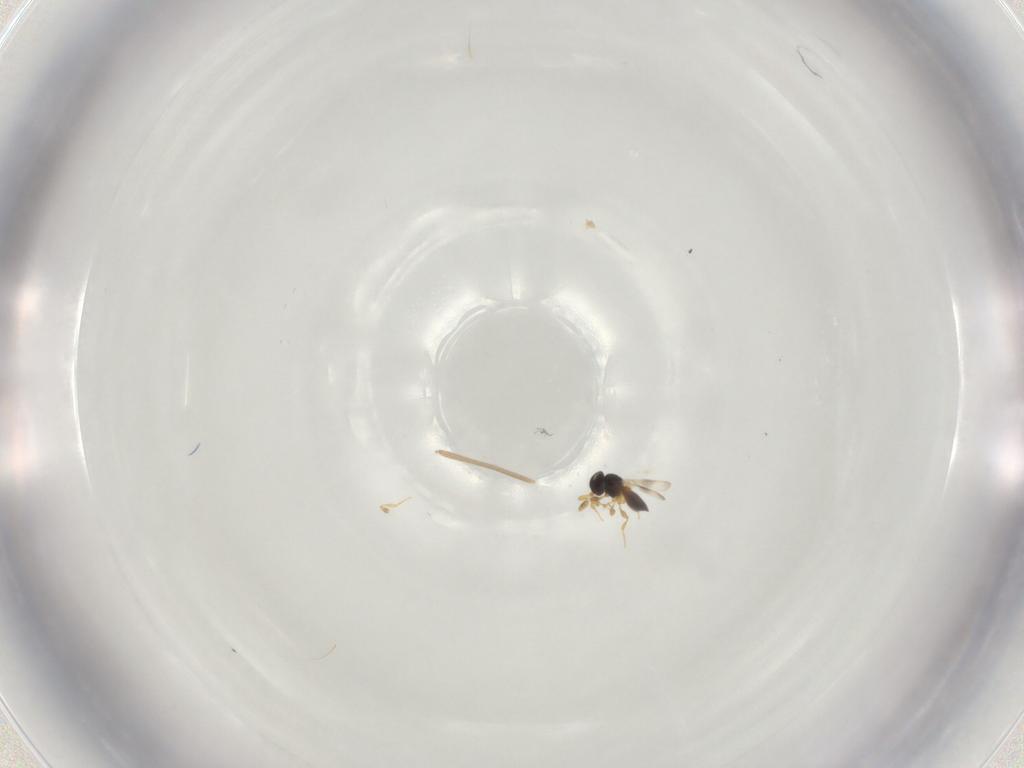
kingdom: Animalia
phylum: Arthropoda
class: Insecta
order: Hymenoptera
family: Platygastridae
